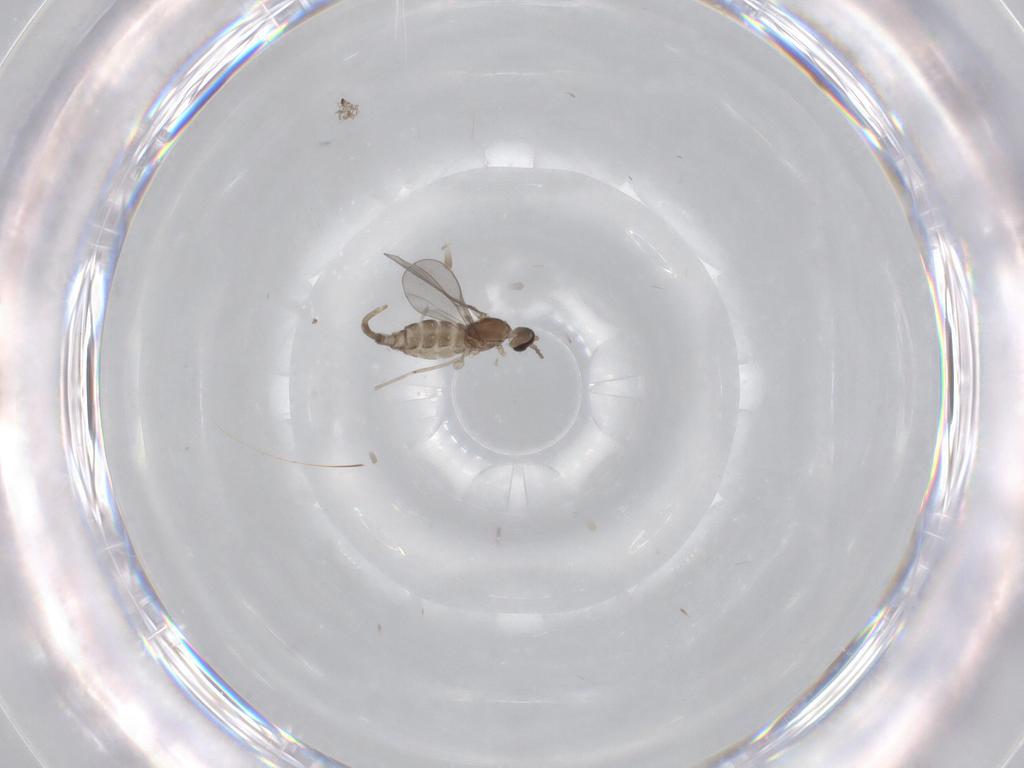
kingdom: Animalia
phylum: Arthropoda
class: Insecta
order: Diptera
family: Cecidomyiidae
